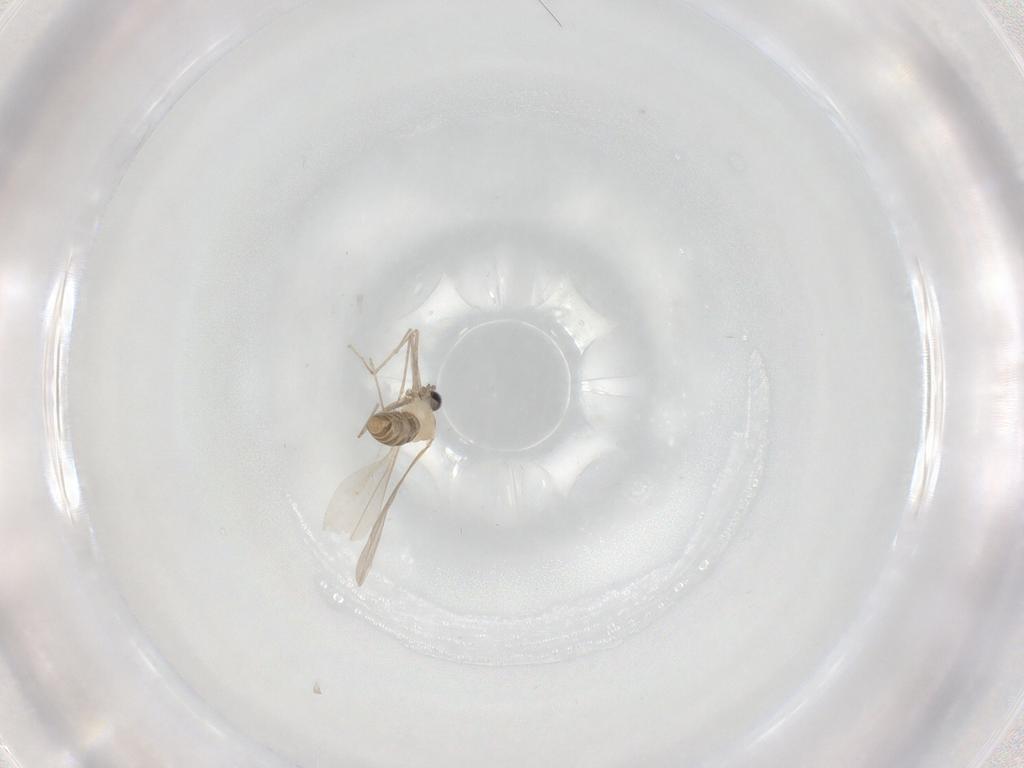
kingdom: Animalia
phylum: Arthropoda
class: Insecta
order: Diptera
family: Cecidomyiidae
